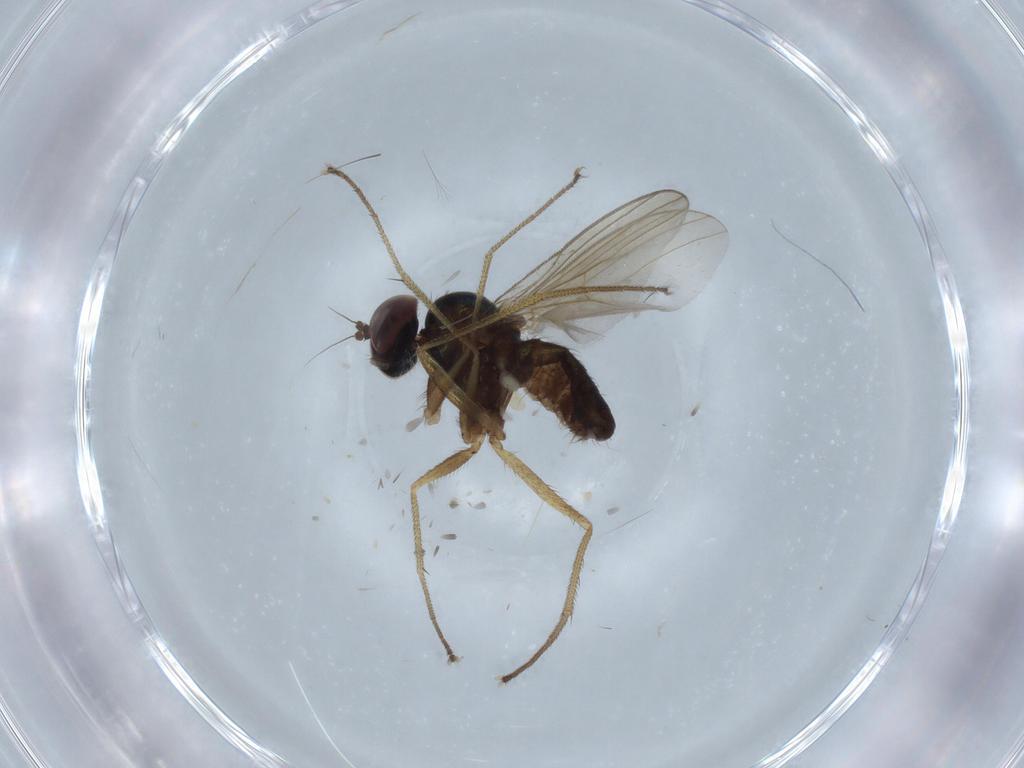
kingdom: Animalia
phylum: Arthropoda
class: Insecta
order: Diptera
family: Dolichopodidae
